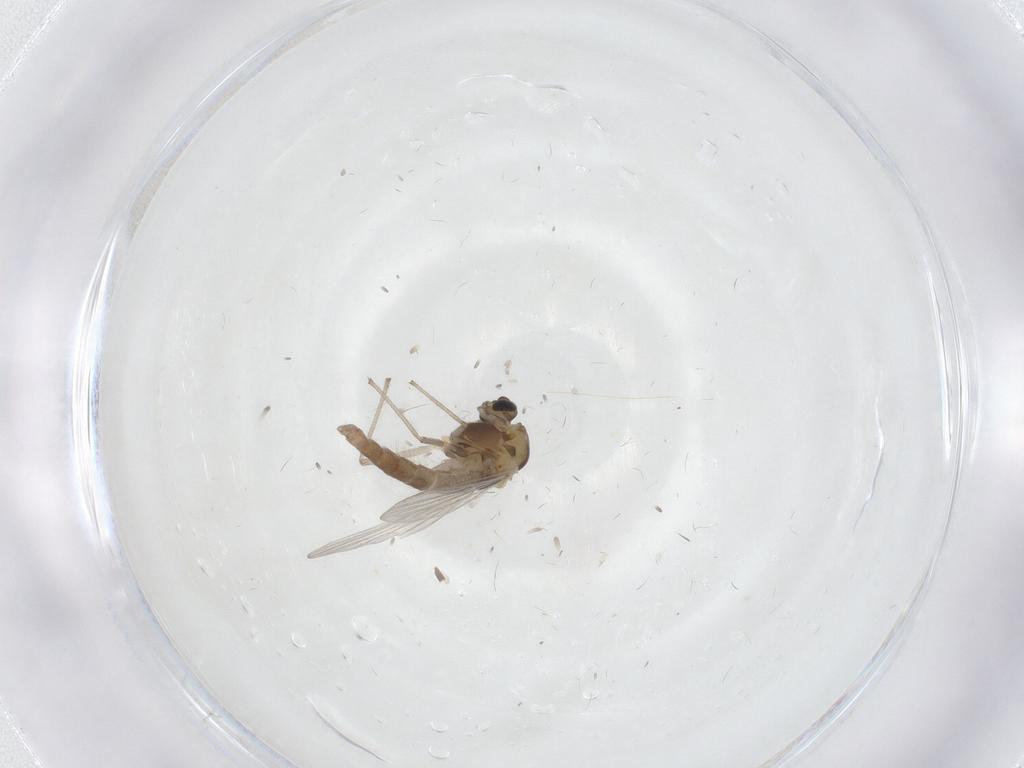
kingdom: Animalia
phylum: Arthropoda
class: Insecta
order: Diptera
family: Chironomidae
